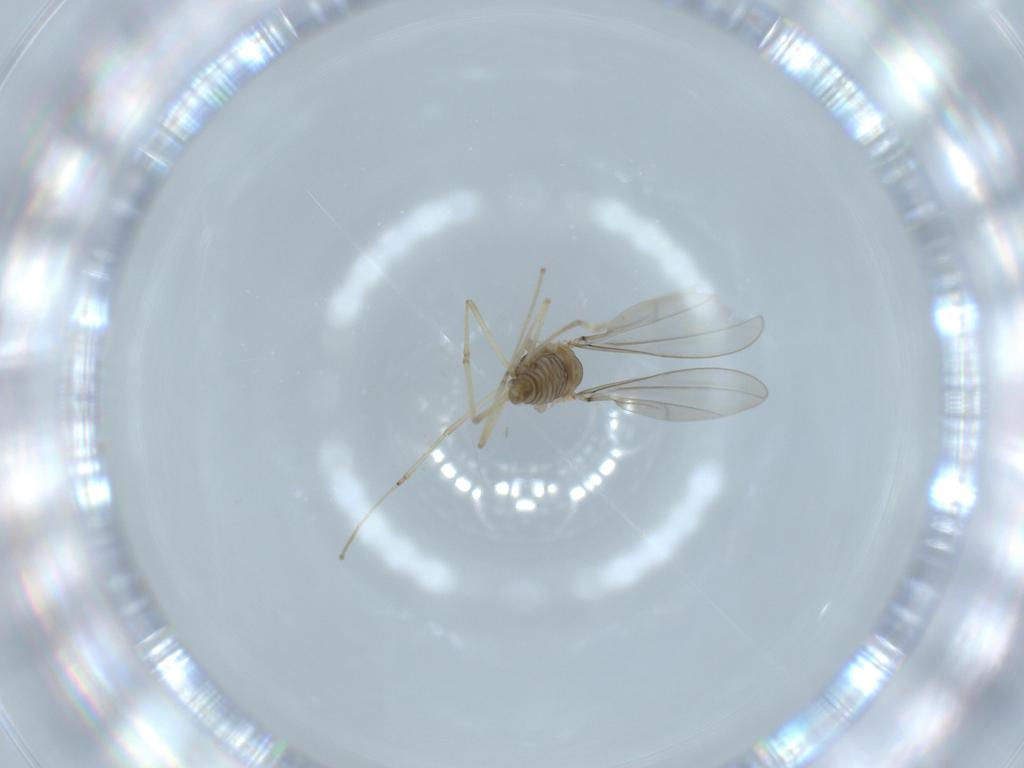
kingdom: Animalia
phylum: Arthropoda
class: Insecta
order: Diptera
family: Cecidomyiidae
